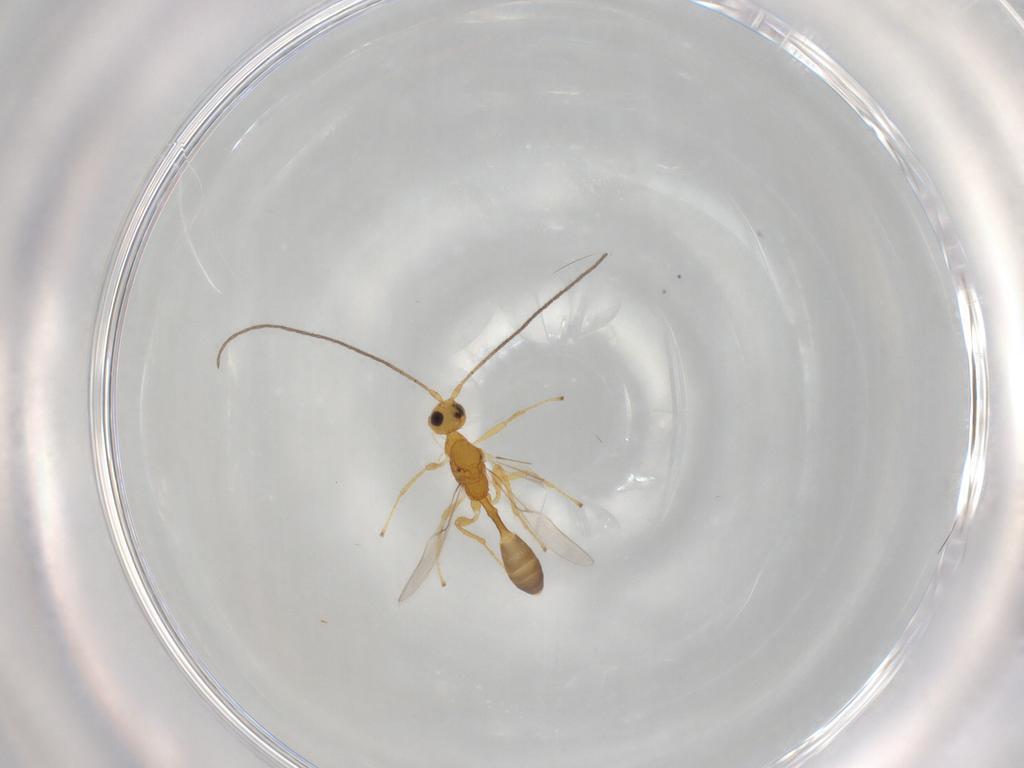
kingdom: Animalia
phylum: Arthropoda
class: Insecta
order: Hymenoptera
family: Braconidae
